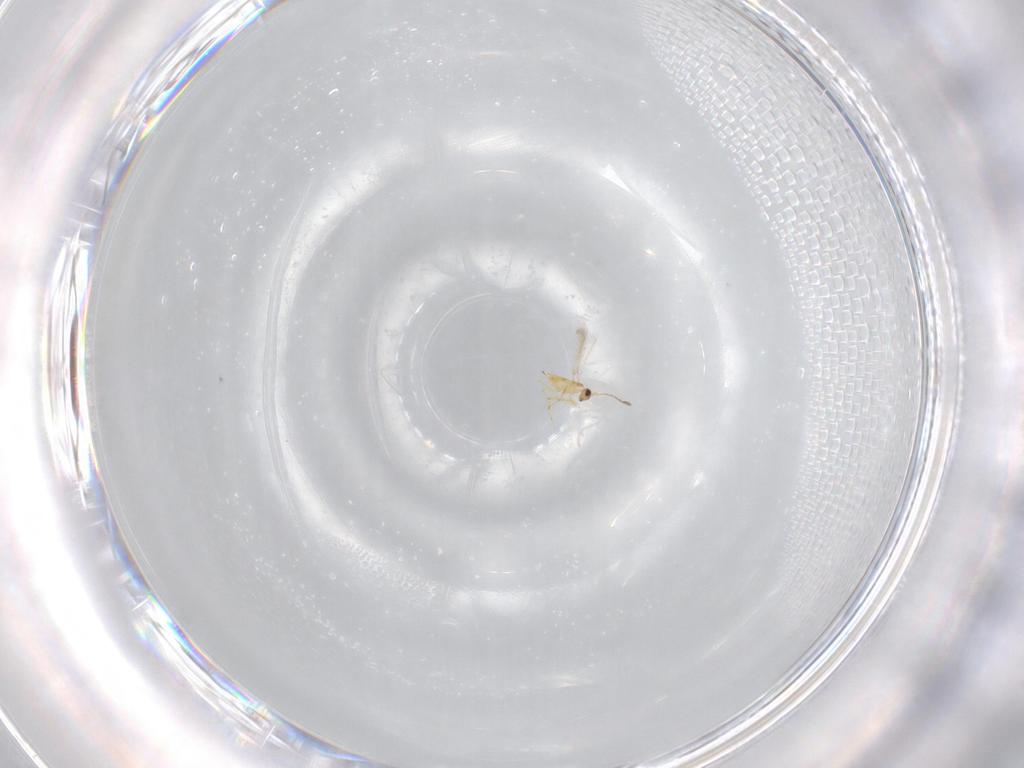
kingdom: Animalia
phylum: Arthropoda
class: Insecta
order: Hymenoptera
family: Mymaridae
